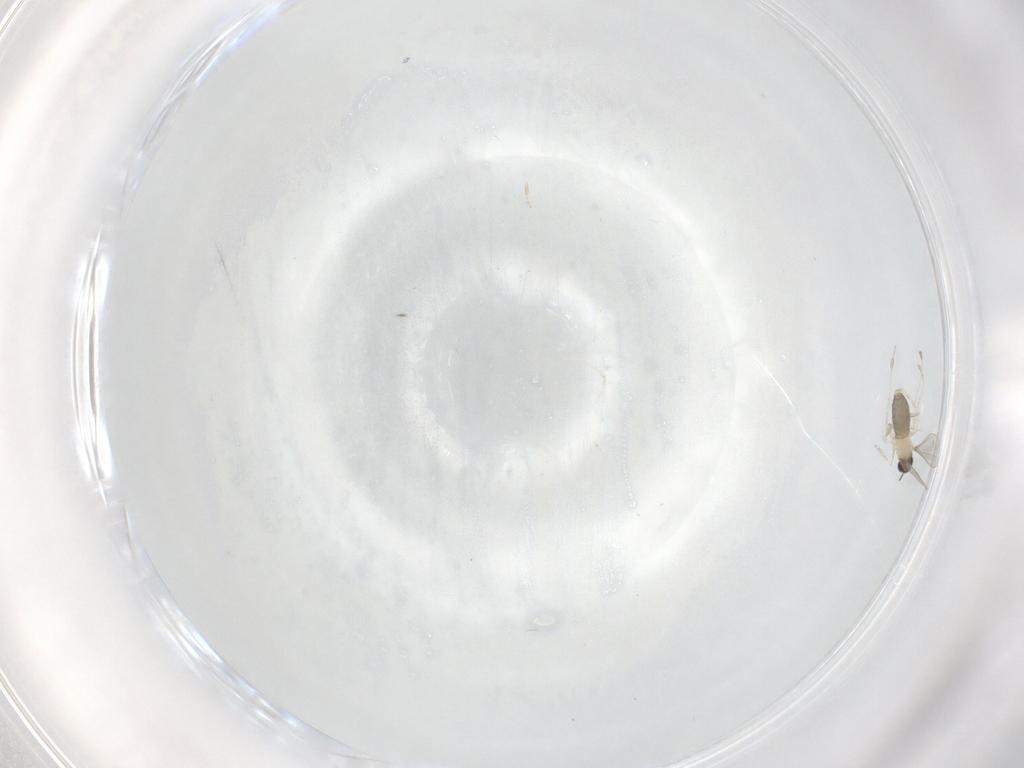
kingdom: Animalia
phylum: Arthropoda
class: Insecta
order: Diptera
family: Cecidomyiidae
